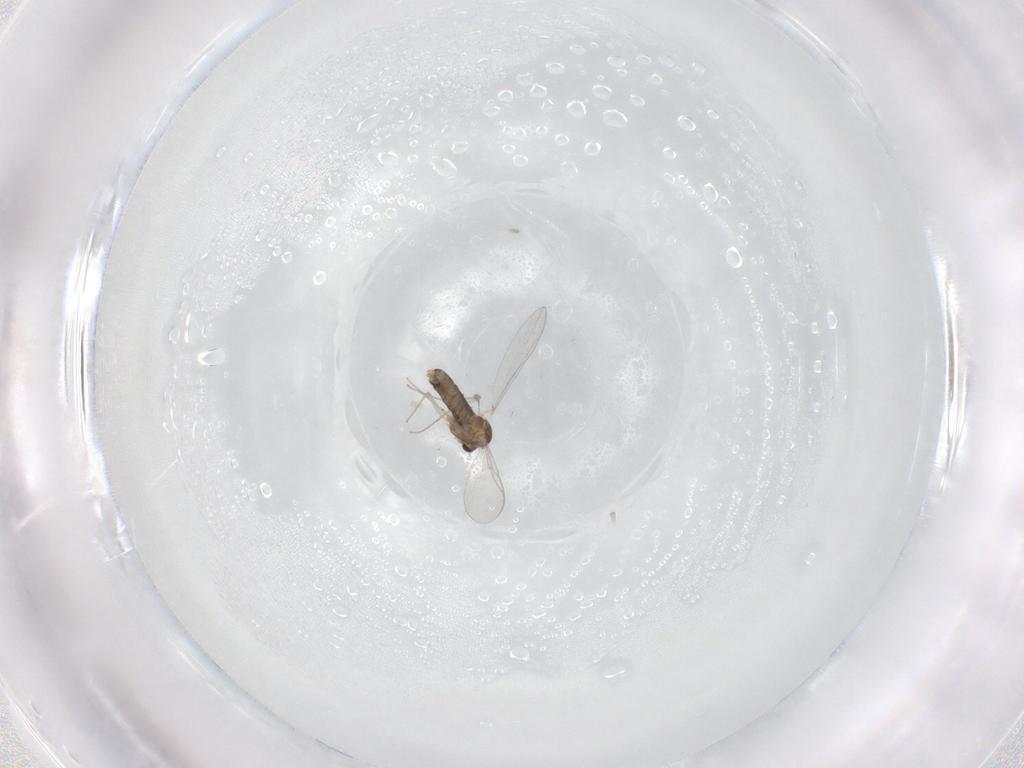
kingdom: Animalia
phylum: Arthropoda
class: Insecta
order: Diptera
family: Chironomidae
